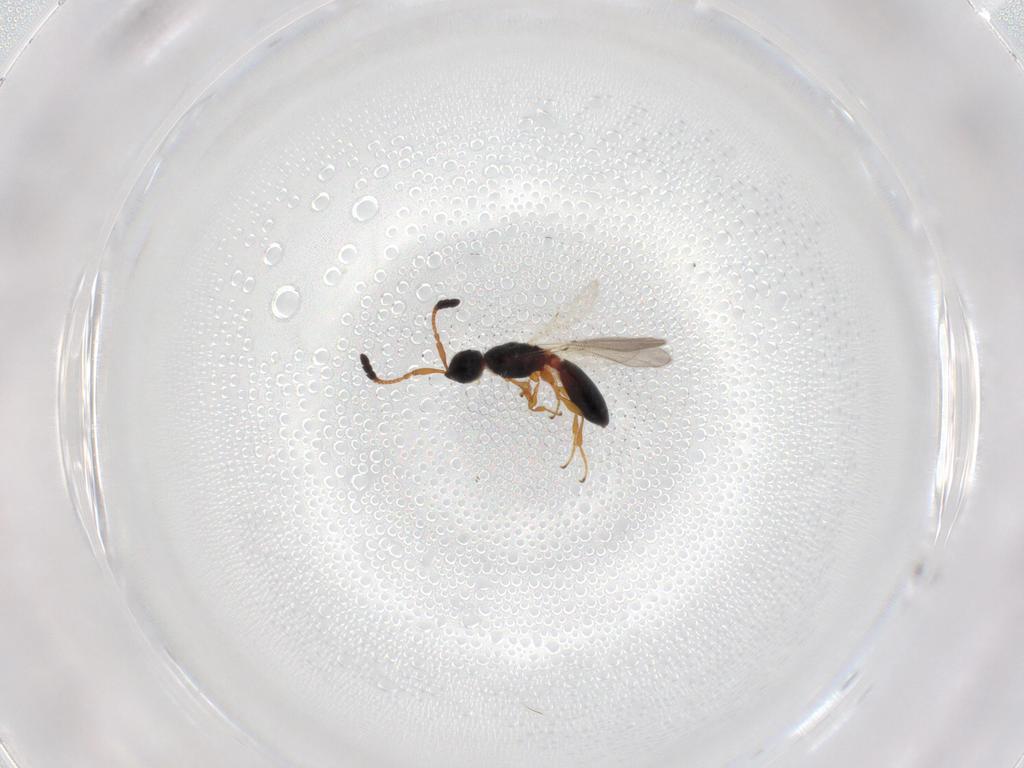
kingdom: Animalia
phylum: Arthropoda
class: Insecta
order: Hymenoptera
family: Diapriidae
